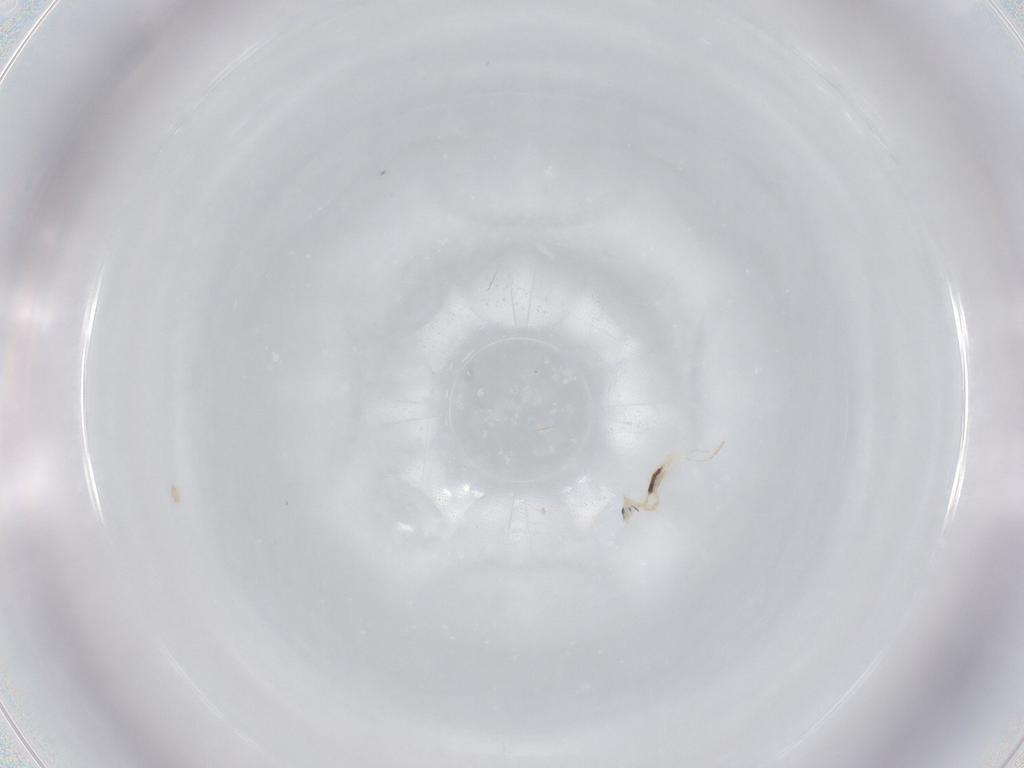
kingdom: Animalia
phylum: Arthropoda
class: Collembola
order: Entomobryomorpha
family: Entomobryidae
